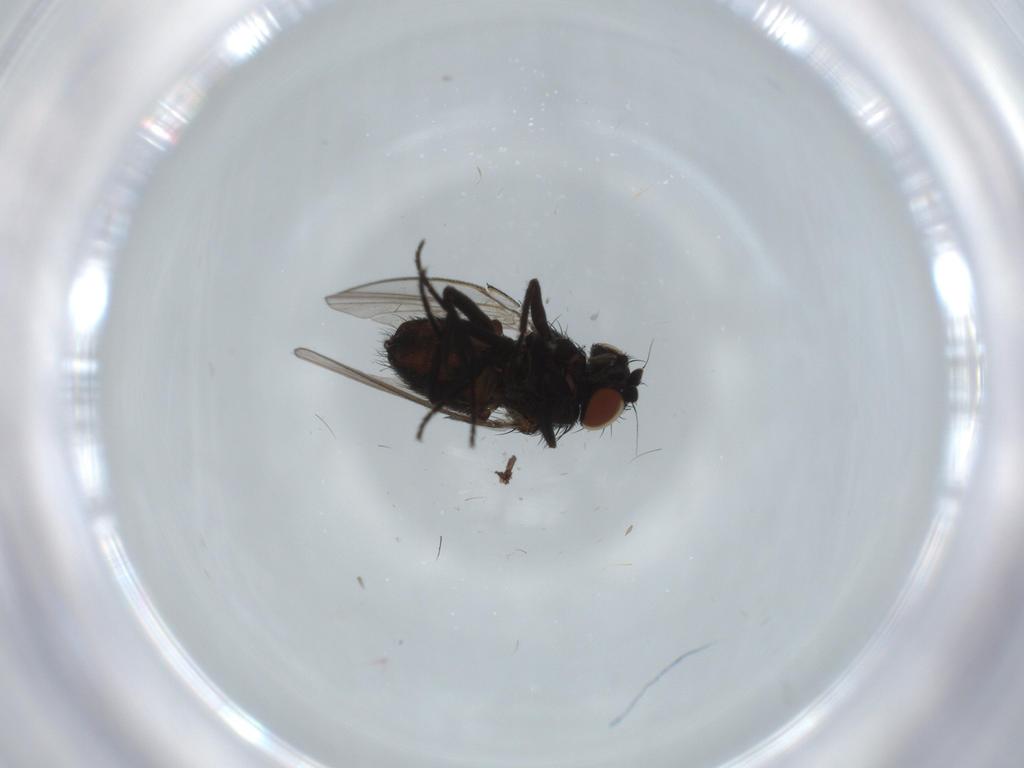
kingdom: Animalia
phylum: Arthropoda
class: Insecta
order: Diptera
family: Milichiidae
